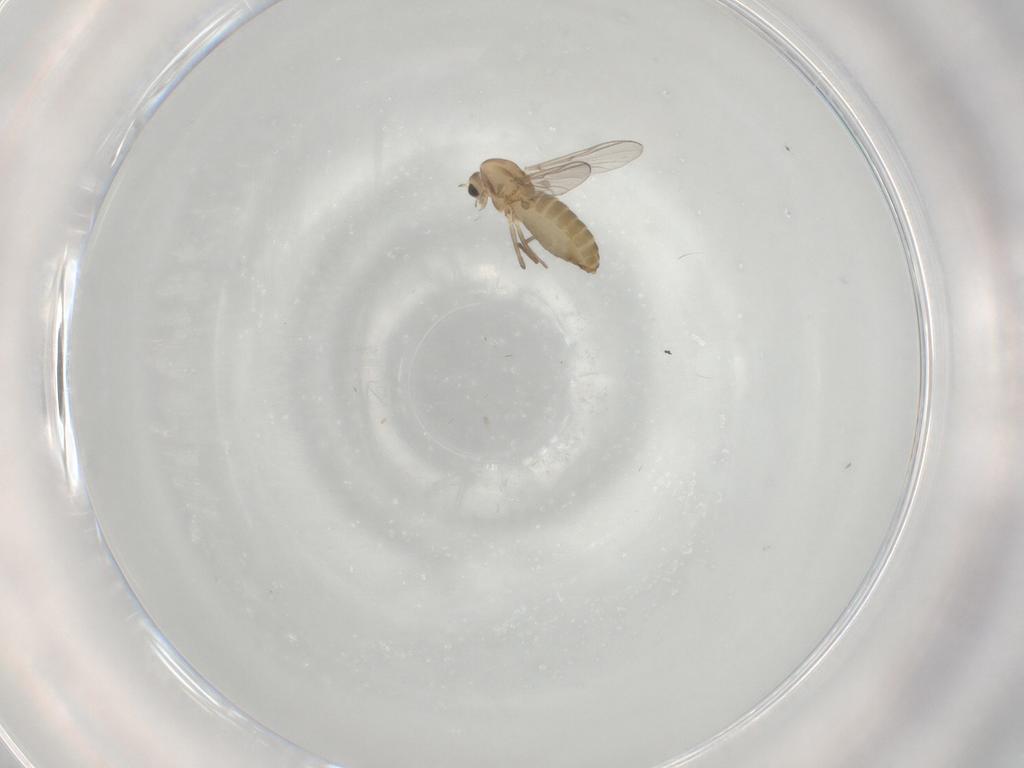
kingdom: Animalia
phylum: Arthropoda
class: Insecta
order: Diptera
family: Chironomidae
